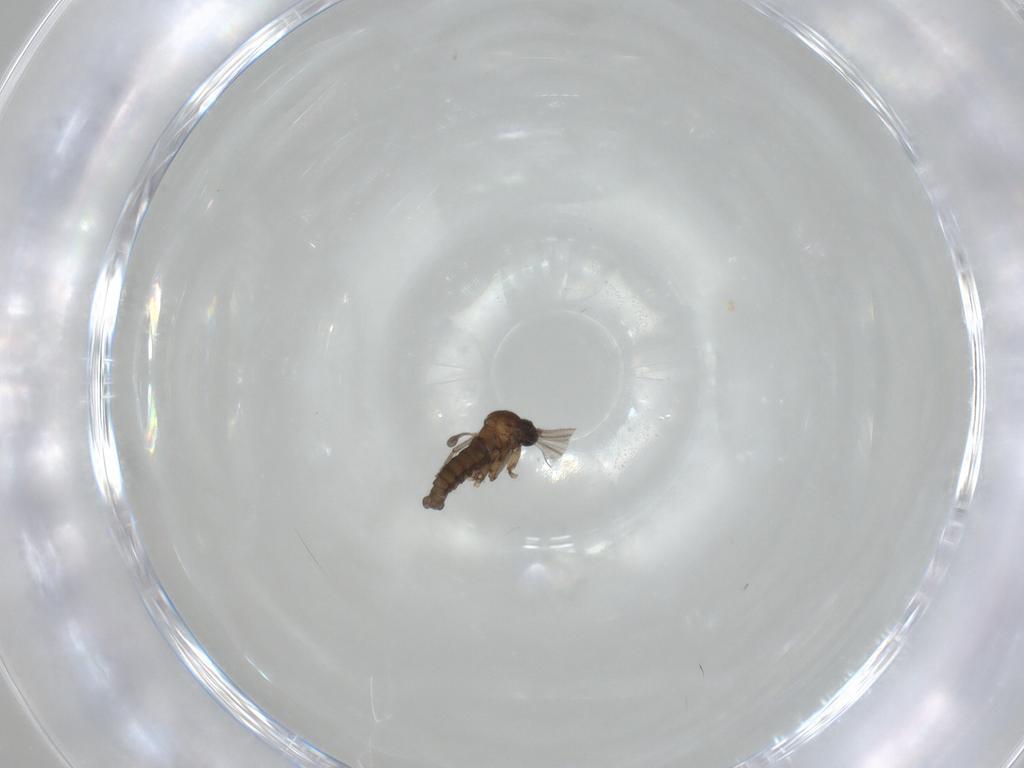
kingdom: Animalia
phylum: Arthropoda
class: Insecta
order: Diptera
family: Sciaridae
